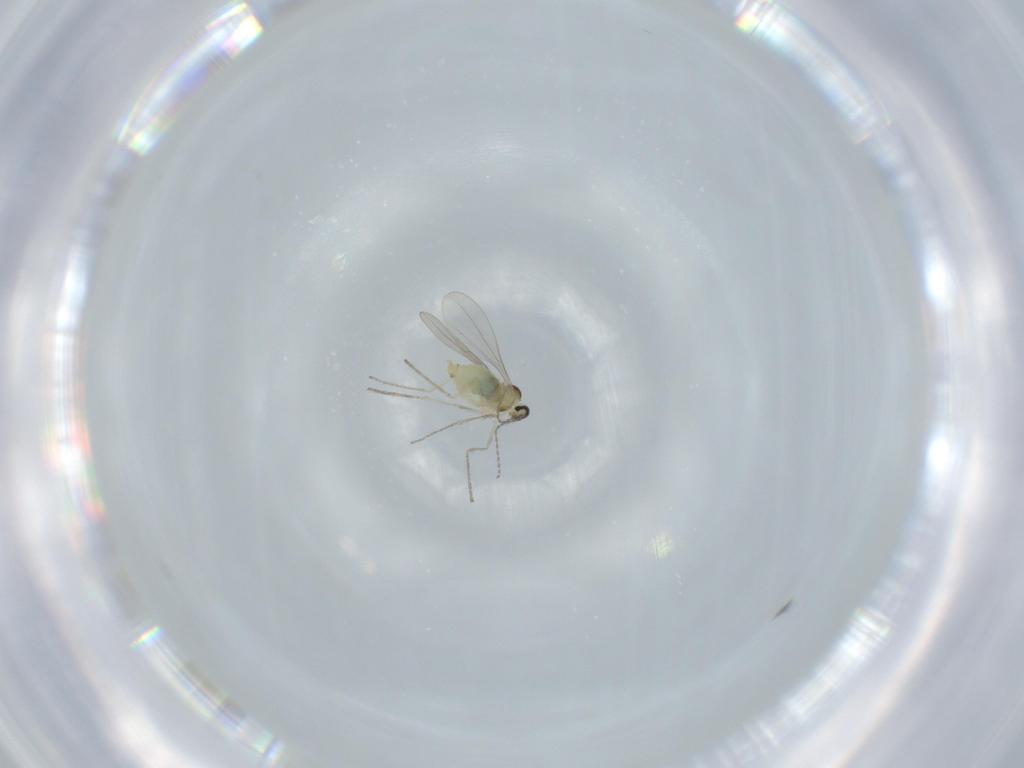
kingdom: Animalia
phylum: Arthropoda
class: Insecta
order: Diptera
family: Cecidomyiidae
